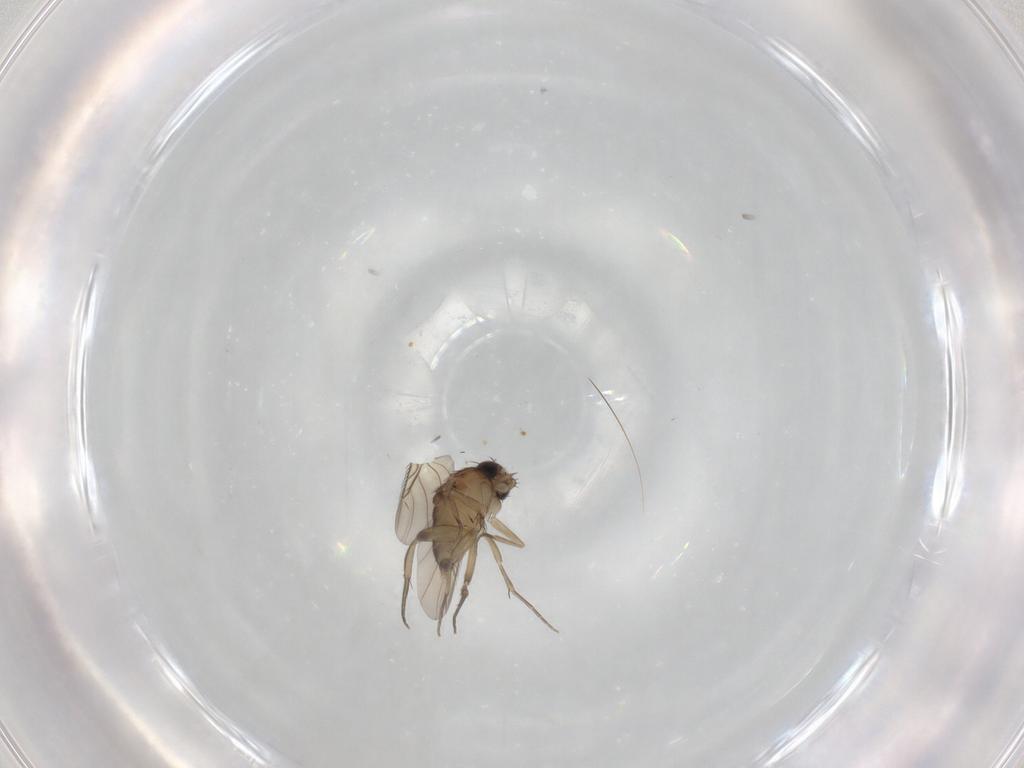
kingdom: Animalia
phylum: Arthropoda
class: Insecta
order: Diptera
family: Phoridae
